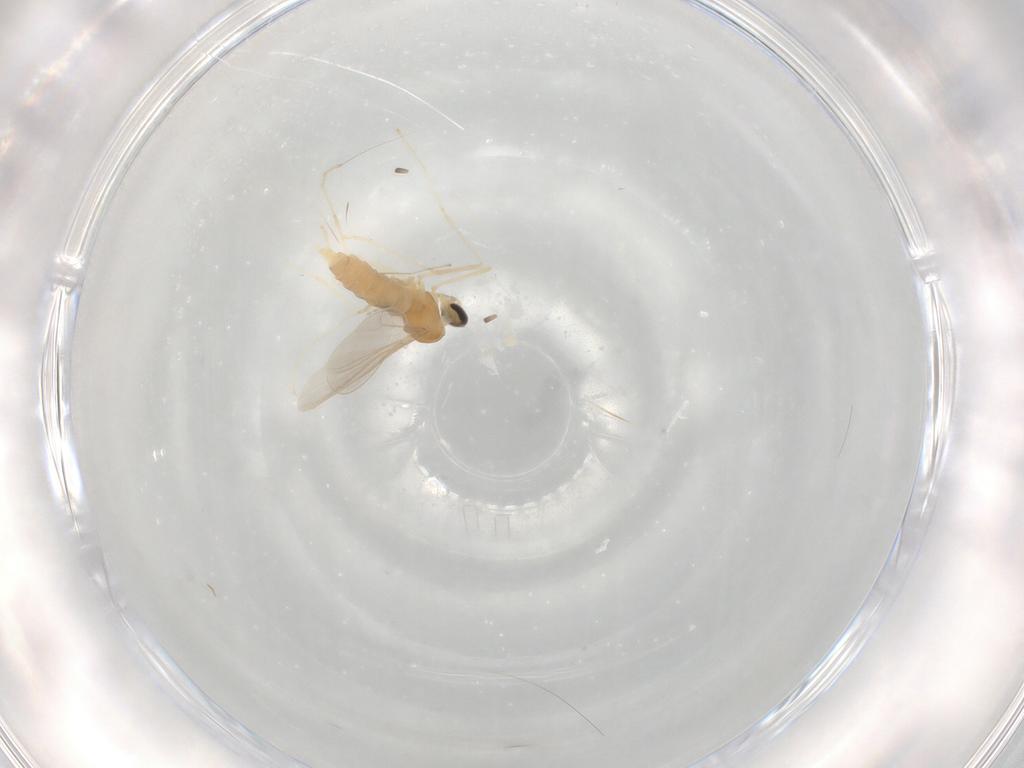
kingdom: Animalia
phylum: Arthropoda
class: Insecta
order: Diptera
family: Cecidomyiidae
